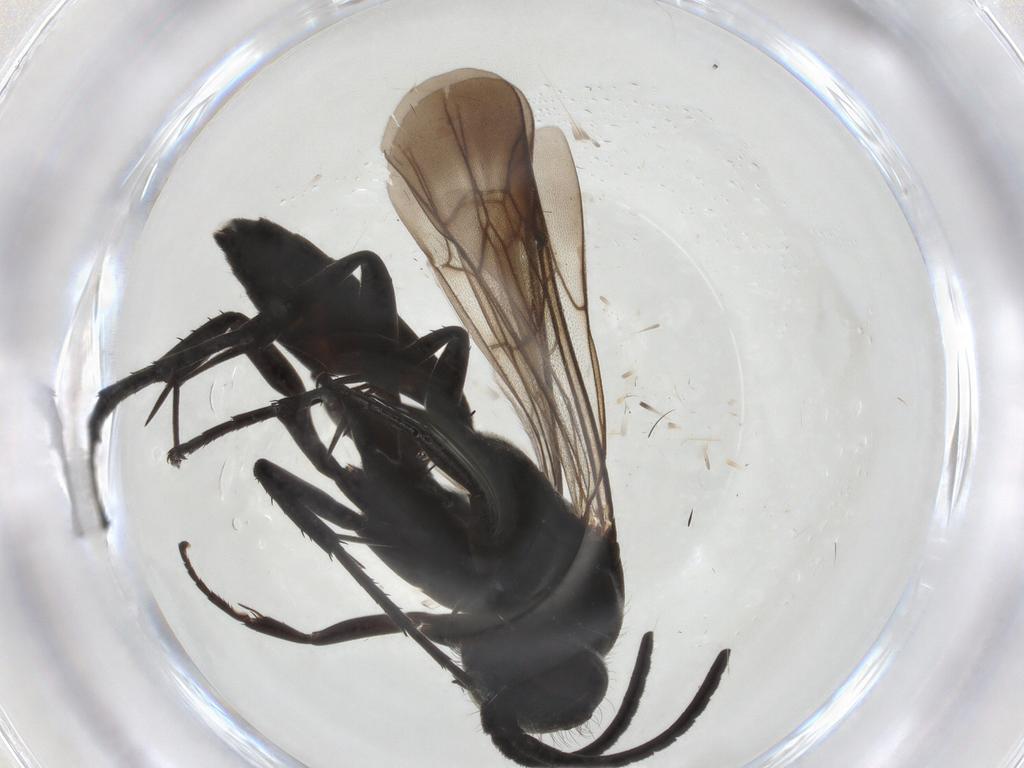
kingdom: Animalia
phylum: Arthropoda
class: Insecta
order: Hymenoptera
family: Pompilidae
